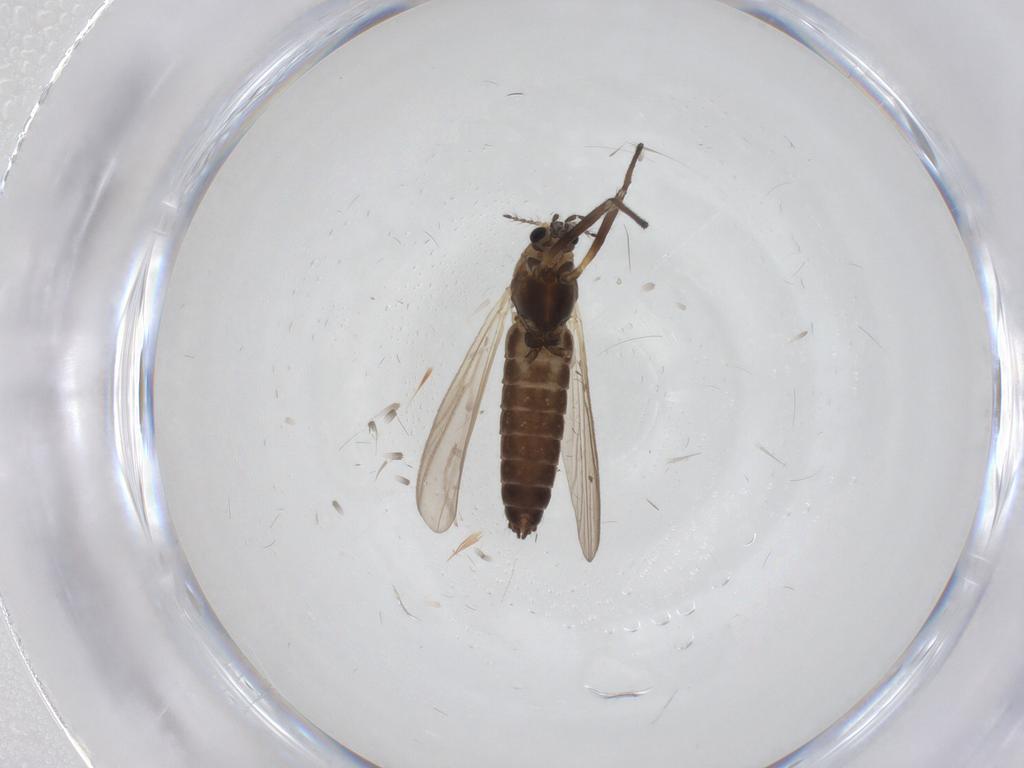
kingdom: Animalia
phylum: Arthropoda
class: Insecta
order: Diptera
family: Chironomidae
